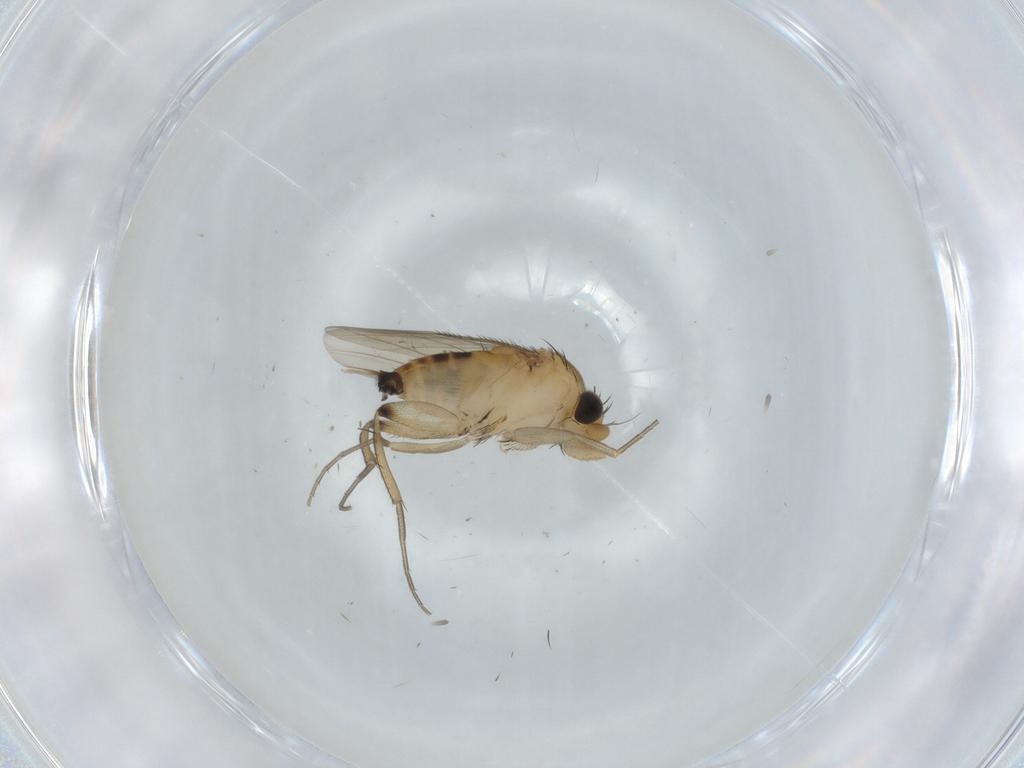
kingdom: Animalia
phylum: Arthropoda
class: Insecta
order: Diptera
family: Phoridae
